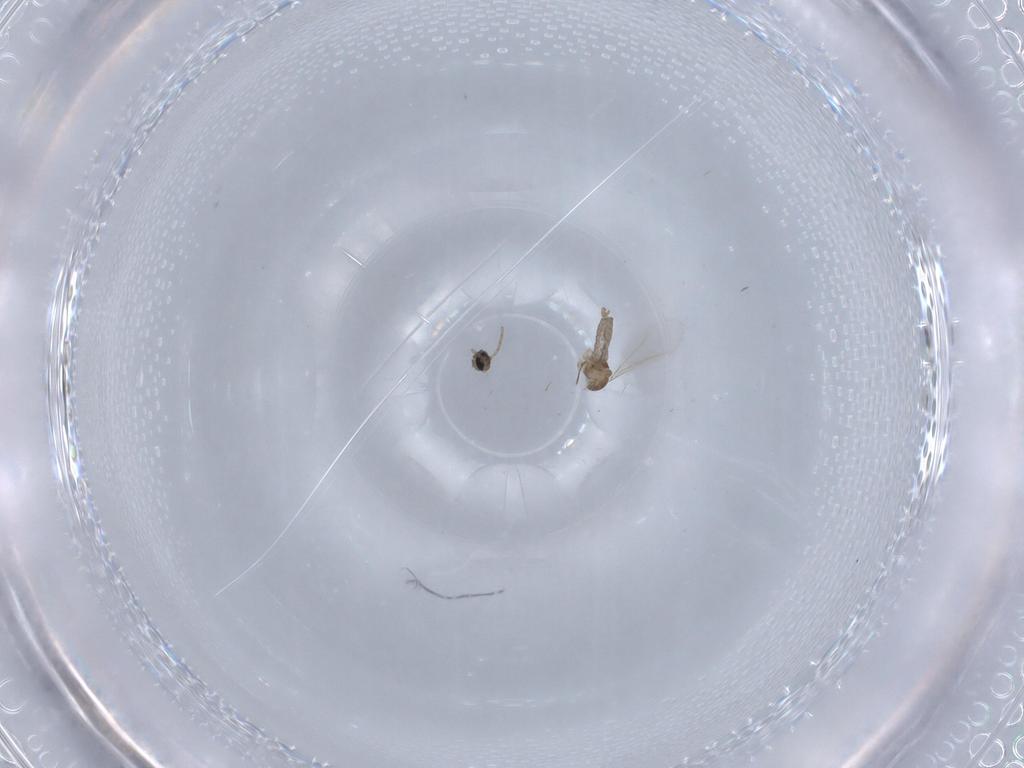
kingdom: Animalia
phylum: Arthropoda
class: Insecta
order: Diptera
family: Cecidomyiidae
